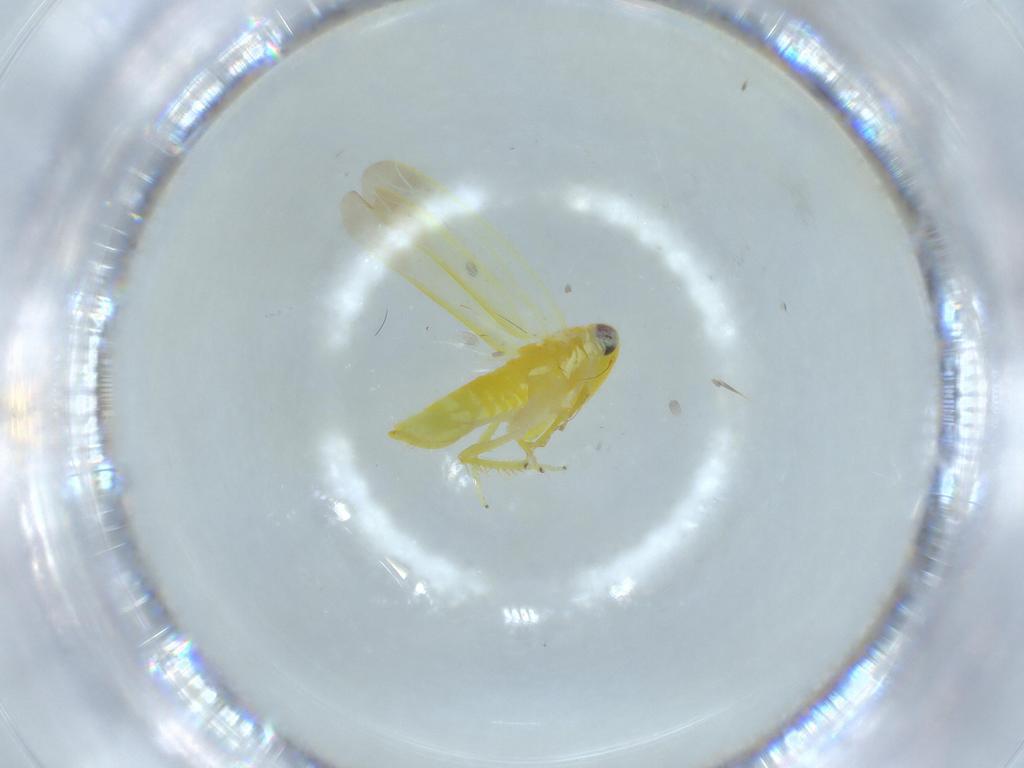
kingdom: Animalia
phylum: Arthropoda
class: Insecta
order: Hemiptera
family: Cicadellidae
